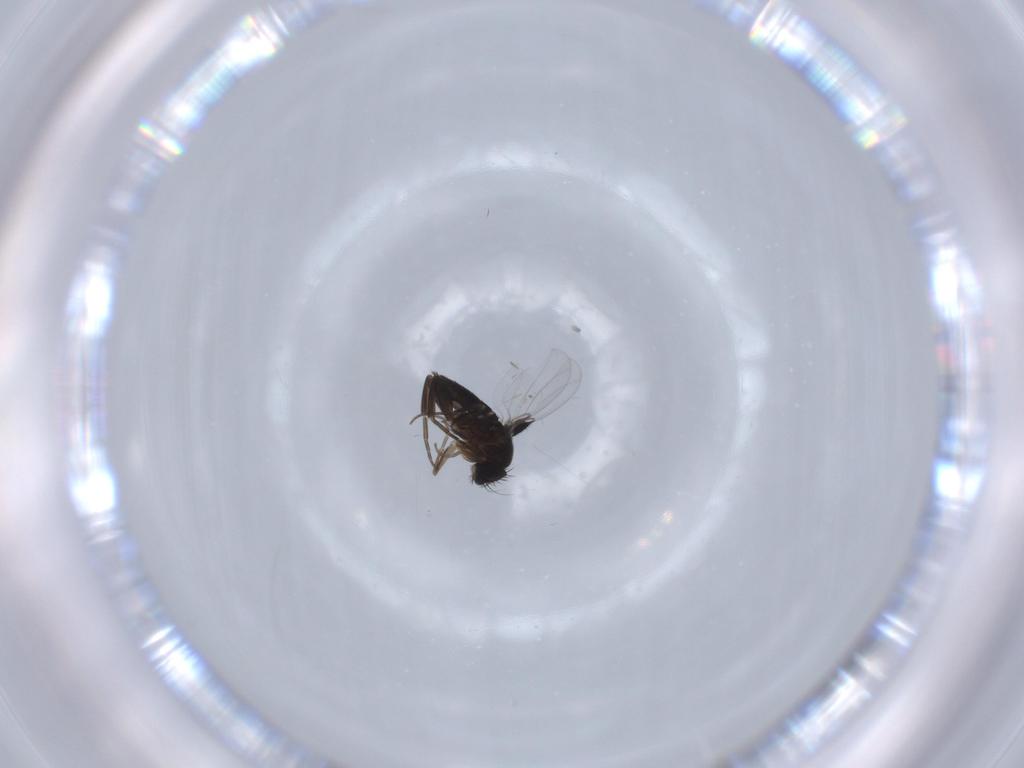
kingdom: Animalia
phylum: Arthropoda
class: Insecta
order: Diptera
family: Phoridae
